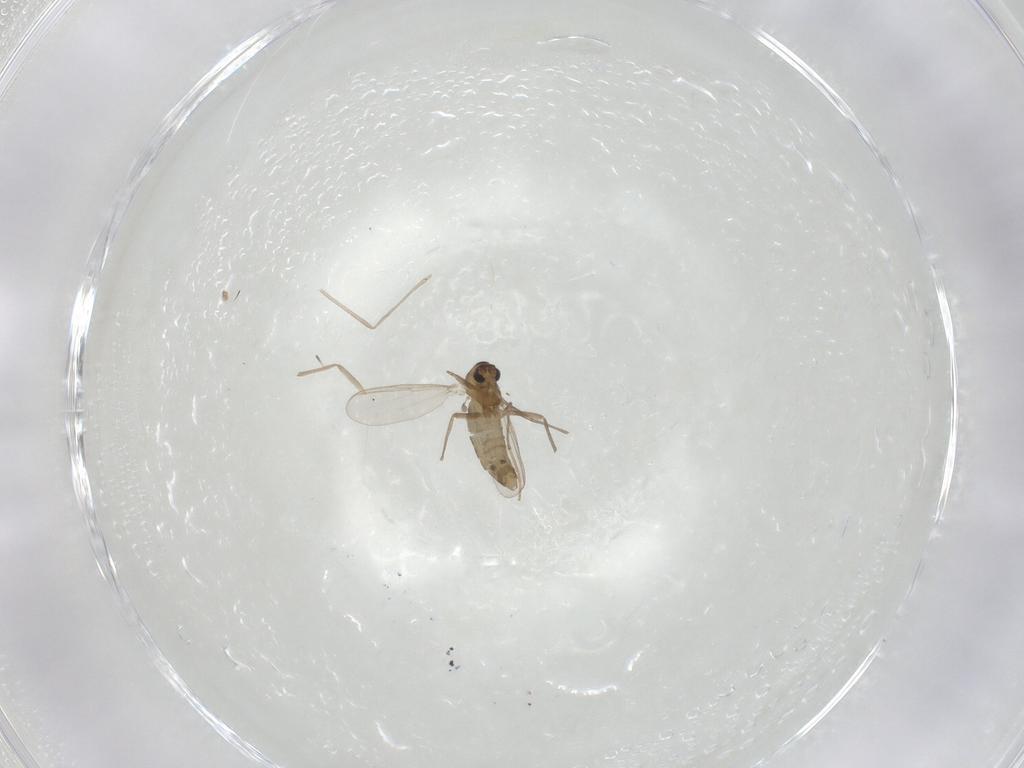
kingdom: Animalia
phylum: Arthropoda
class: Insecta
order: Diptera
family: Chironomidae
